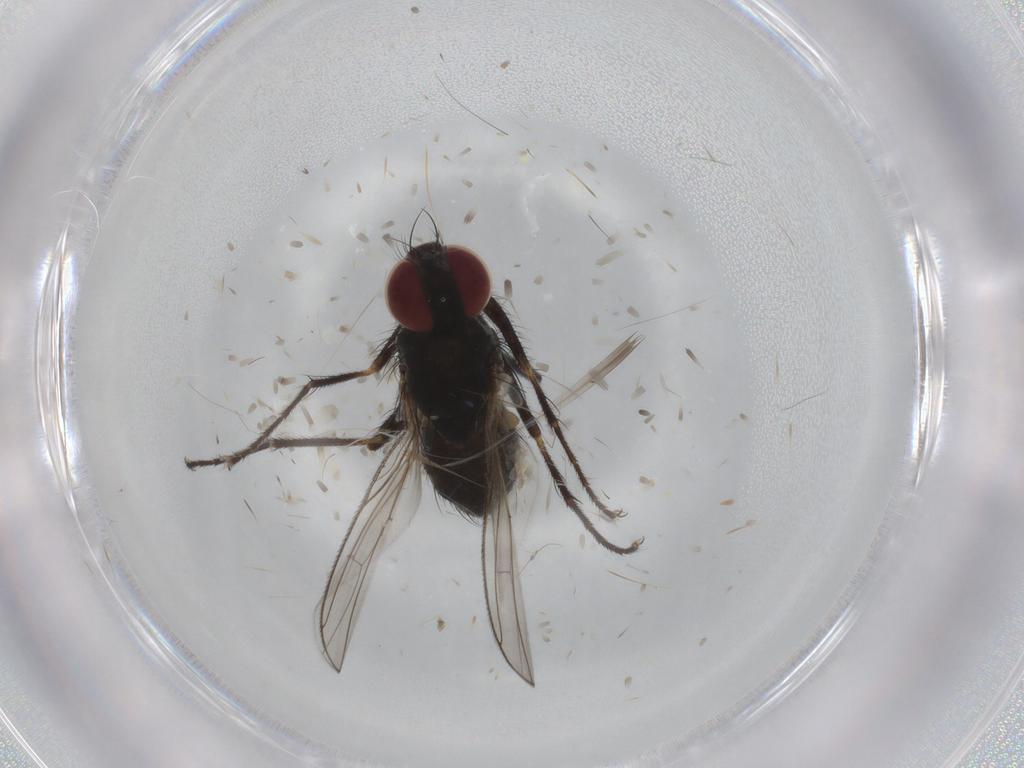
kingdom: Animalia
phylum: Arthropoda
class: Insecta
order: Diptera
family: Muscidae
